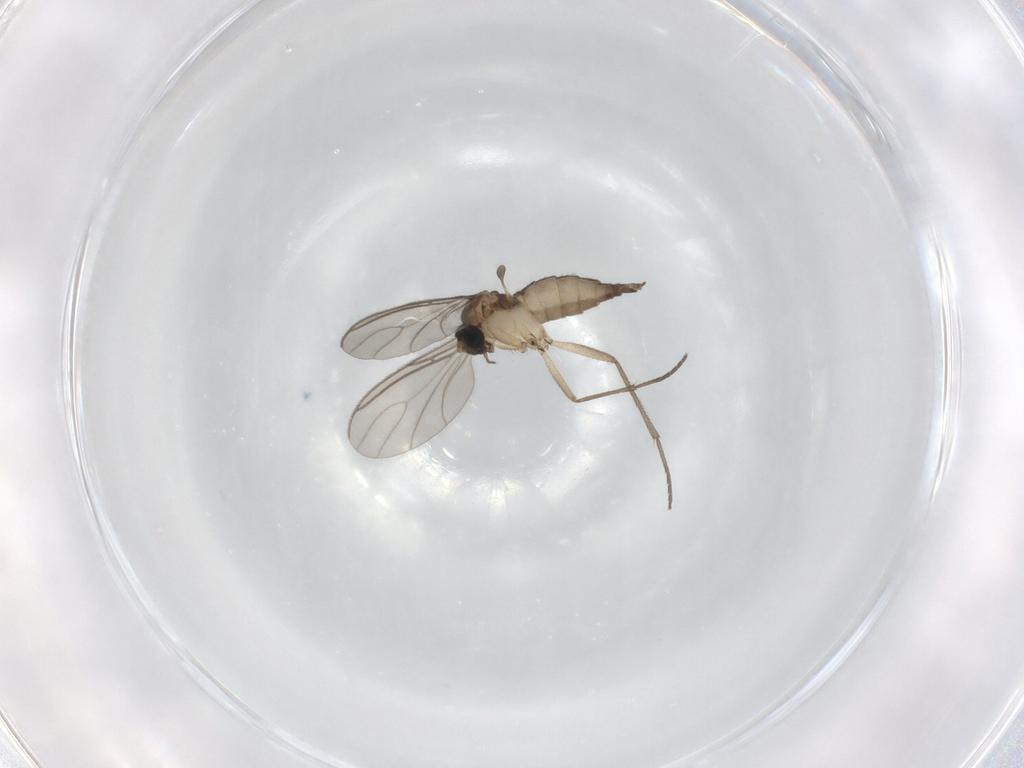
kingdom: Animalia
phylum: Arthropoda
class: Insecta
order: Diptera
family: Sciaridae
